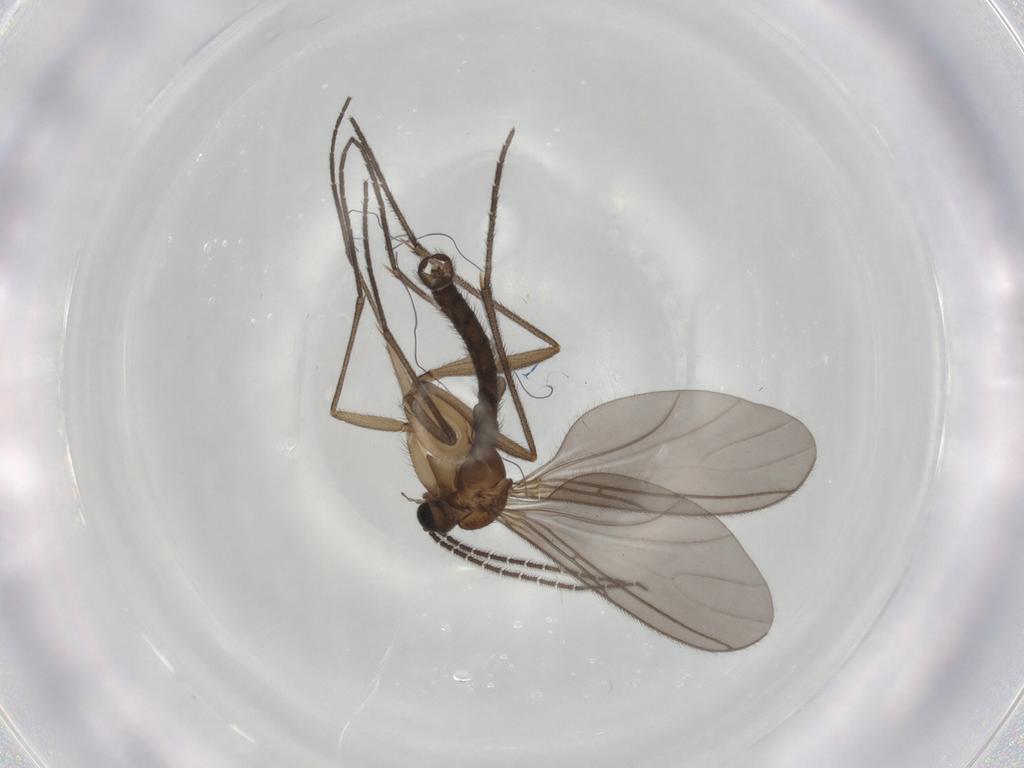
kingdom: Animalia
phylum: Arthropoda
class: Insecta
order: Diptera
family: Sciaridae
